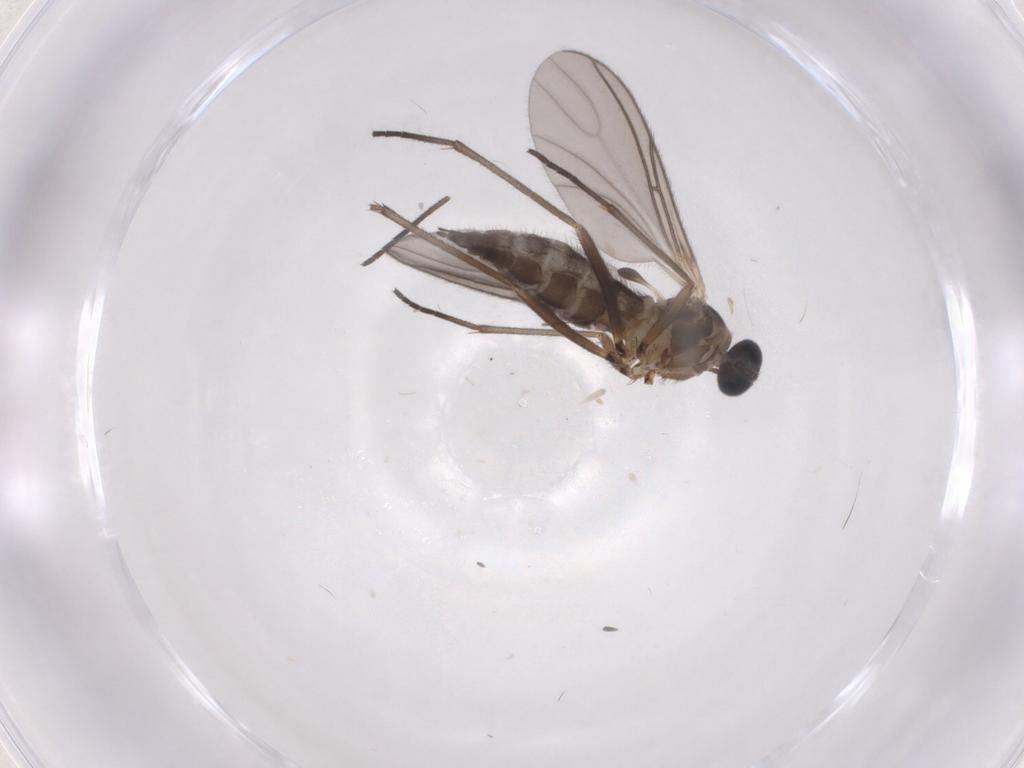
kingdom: Animalia
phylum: Arthropoda
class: Insecta
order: Diptera
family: Sciaridae
